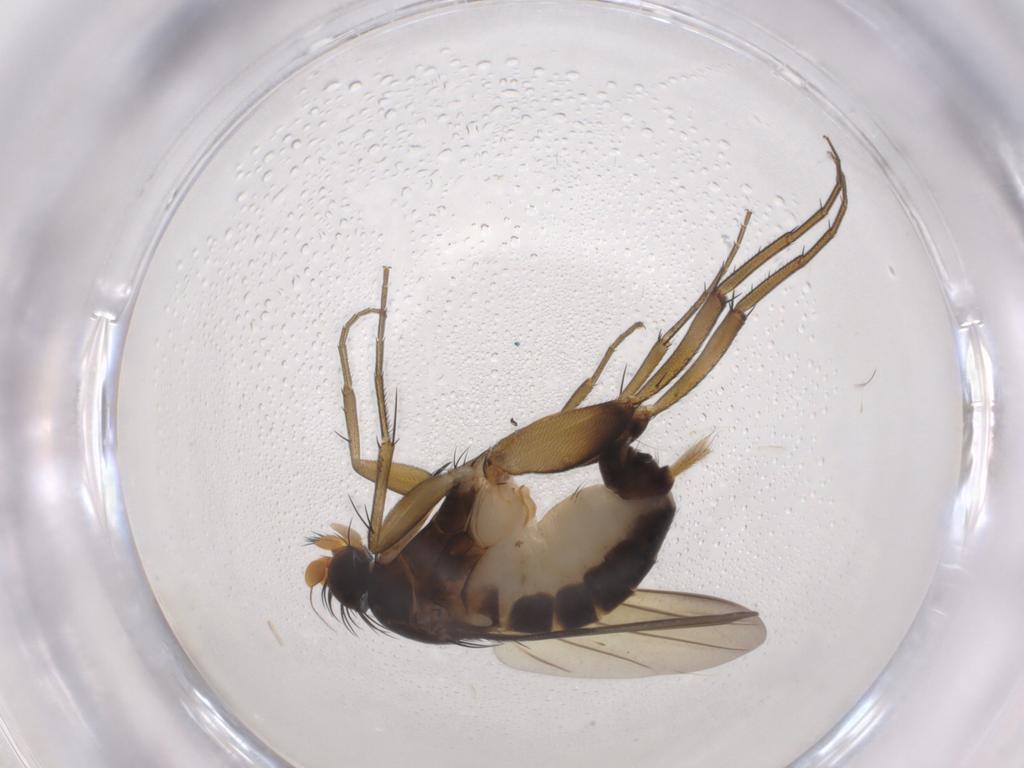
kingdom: Animalia
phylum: Arthropoda
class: Insecta
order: Diptera
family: Phoridae
